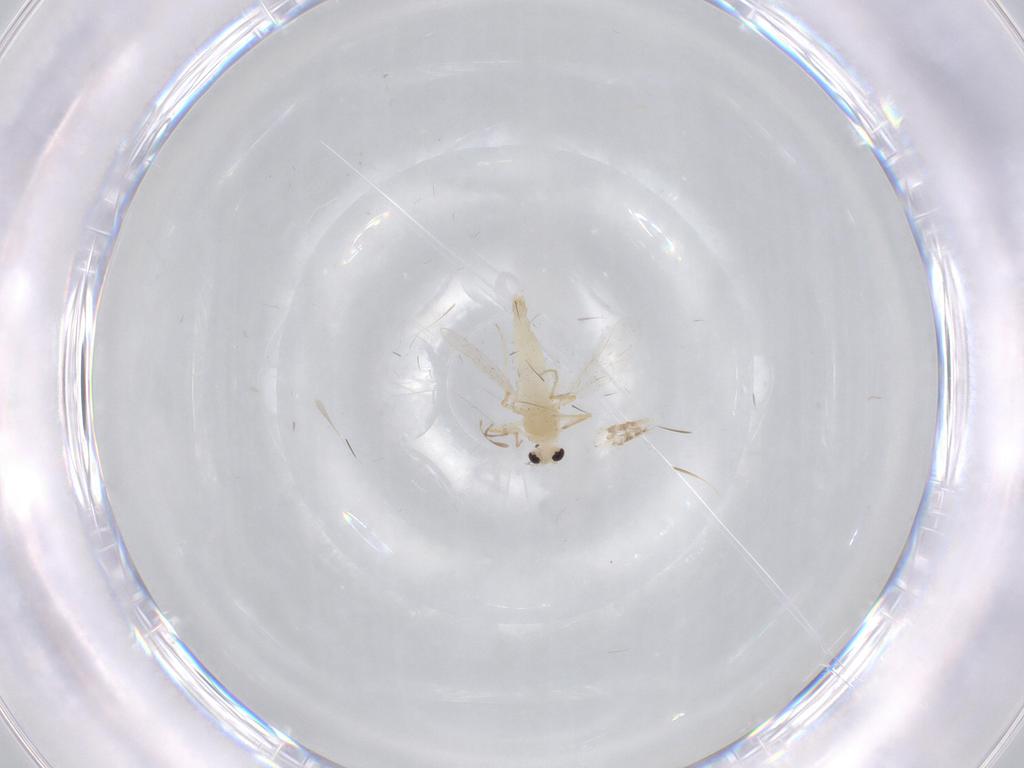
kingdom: Animalia
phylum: Arthropoda
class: Insecta
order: Diptera
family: Chironomidae
